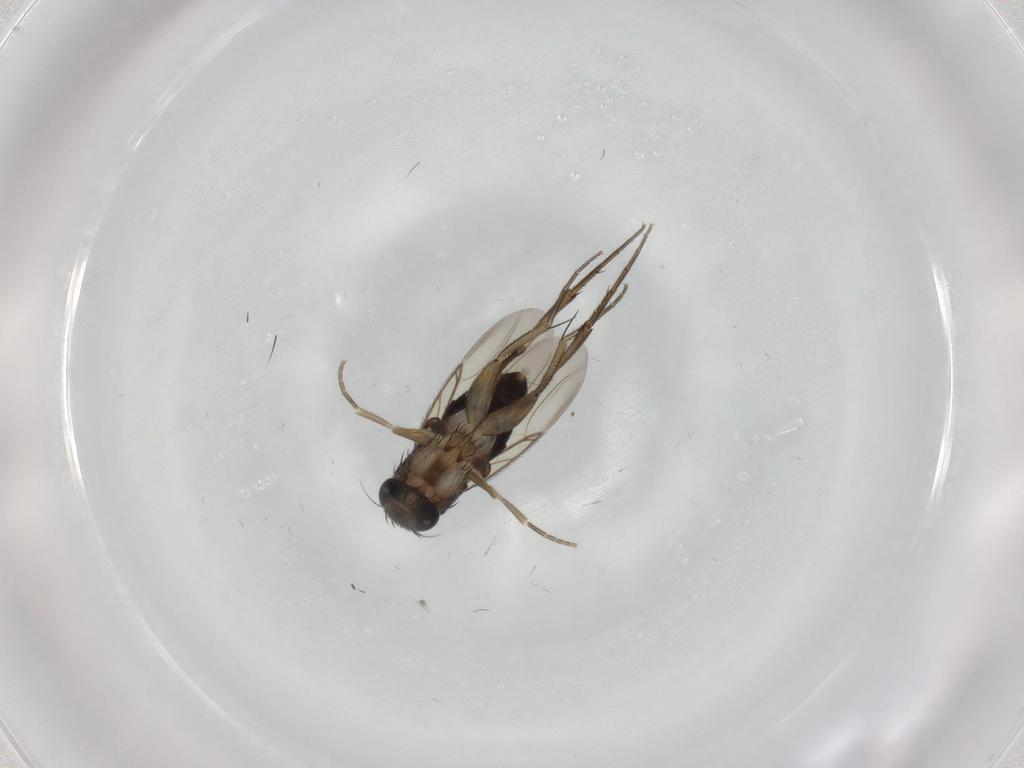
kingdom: Animalia
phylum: Arthropoda
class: Insecta
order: Diptera
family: Phoridae
